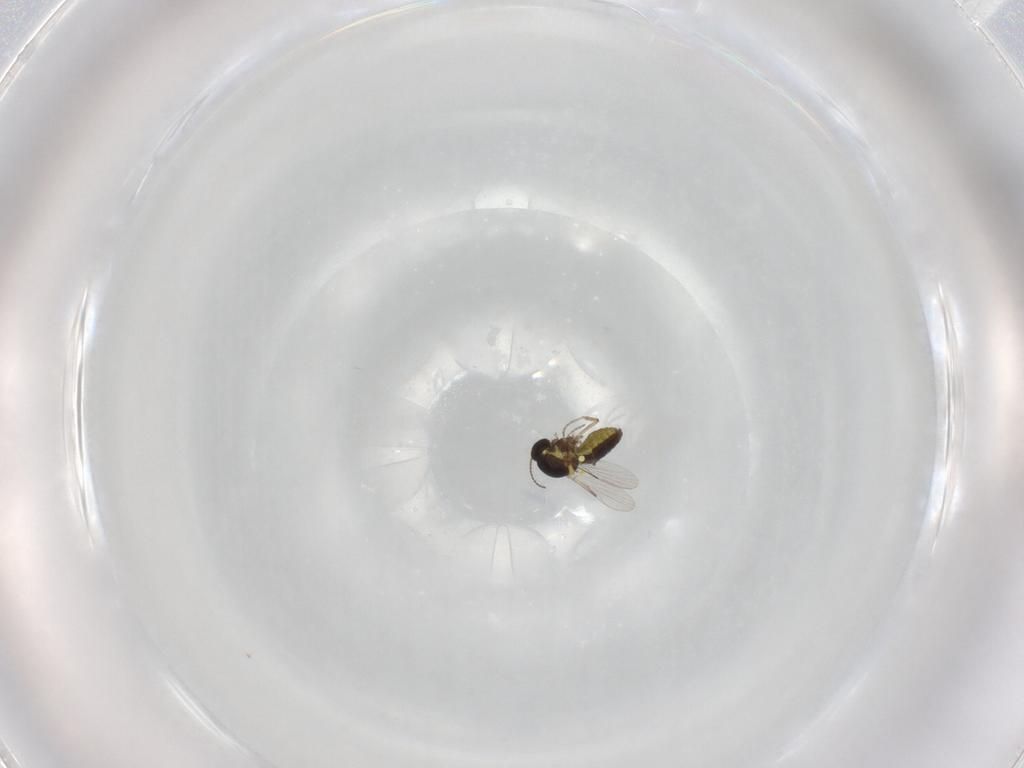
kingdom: Animalia
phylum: Arthropoda
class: Insecta
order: Diptera
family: Ceratopogonidae
